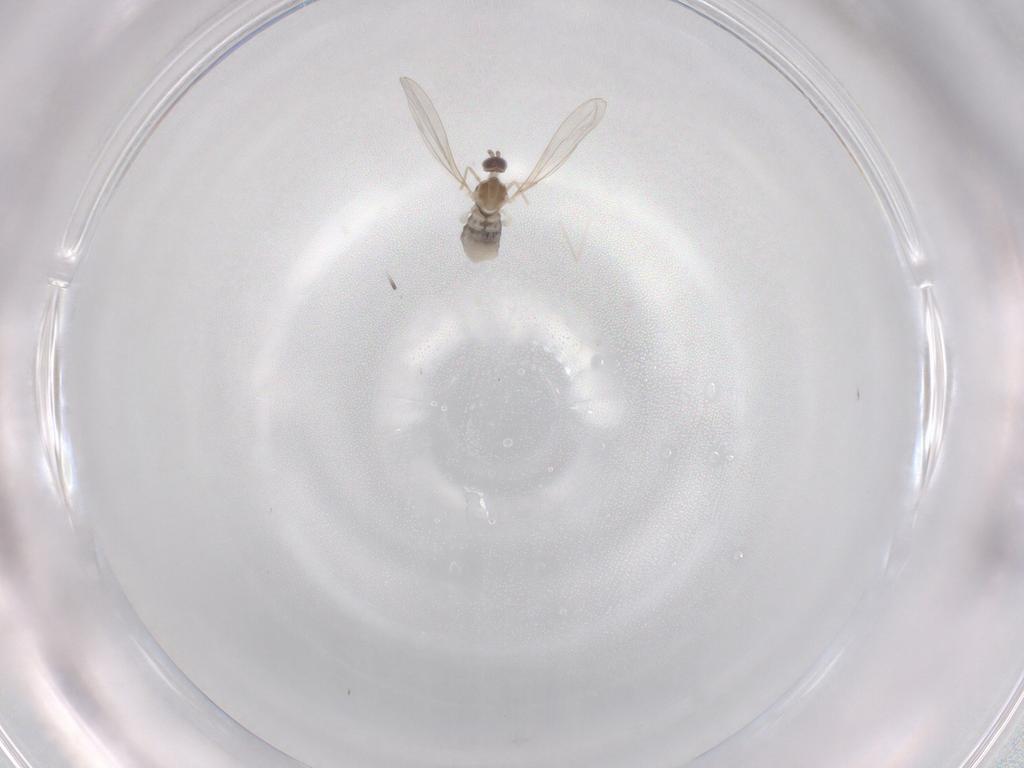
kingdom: Animalia
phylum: Arthropoda
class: Insecta
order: Diptera
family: Cecidomyiidae
